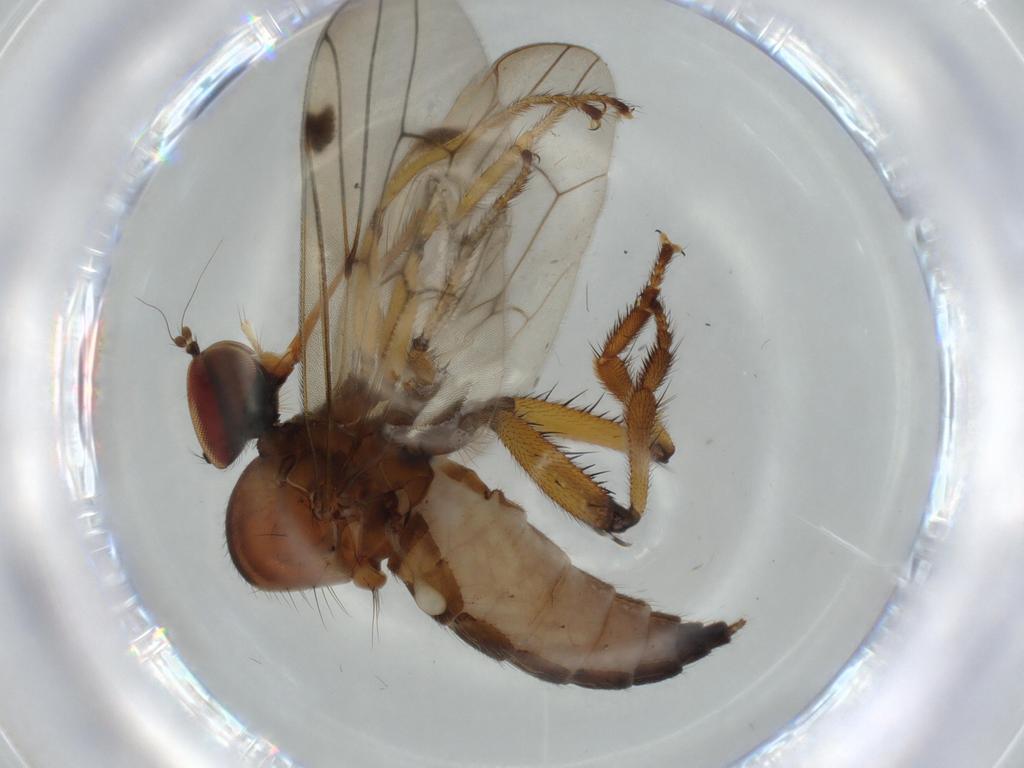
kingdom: Animalia
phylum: Arthropoda
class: Insecta
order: Diptera
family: Hybotidae
